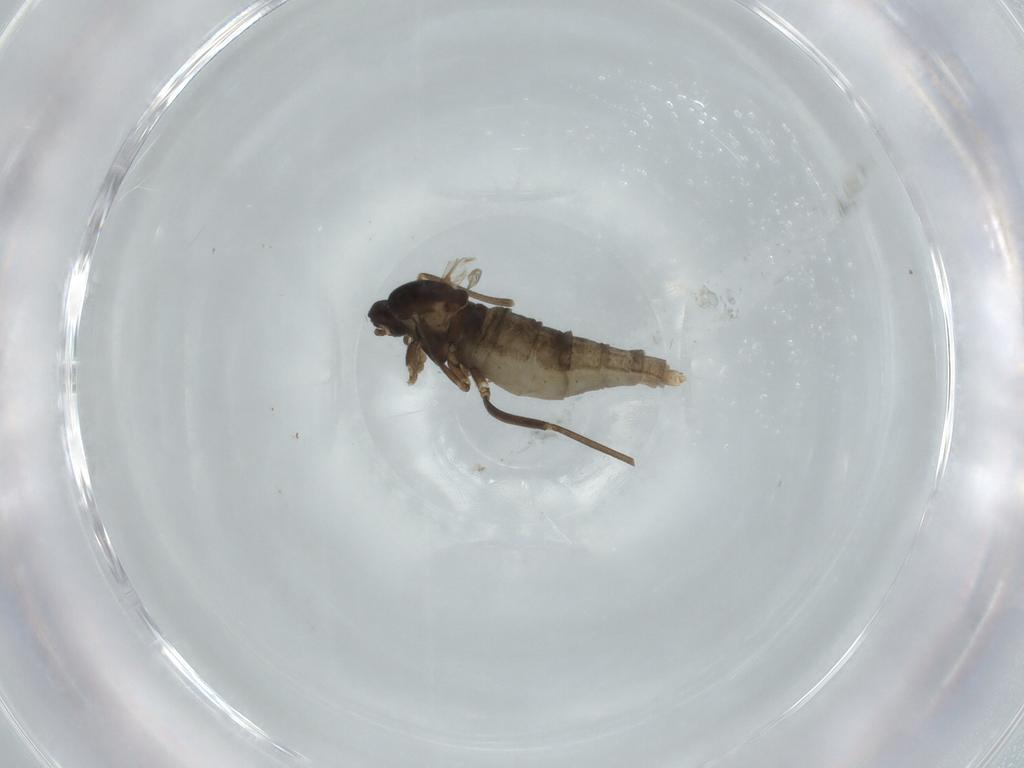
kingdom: Animalia
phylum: Arthropoda
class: Insecta
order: Diptera
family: Cecidomyiidae
